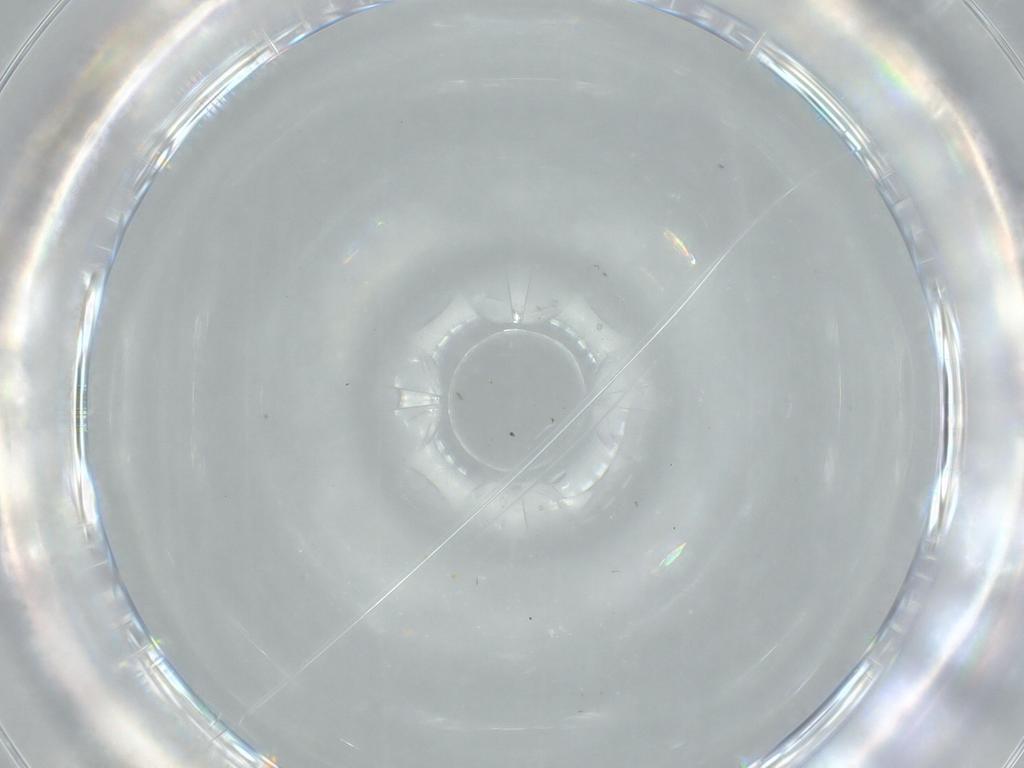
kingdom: Animalia
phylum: Arthropoda
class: Insecta
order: Diptera
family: Milichiidae
